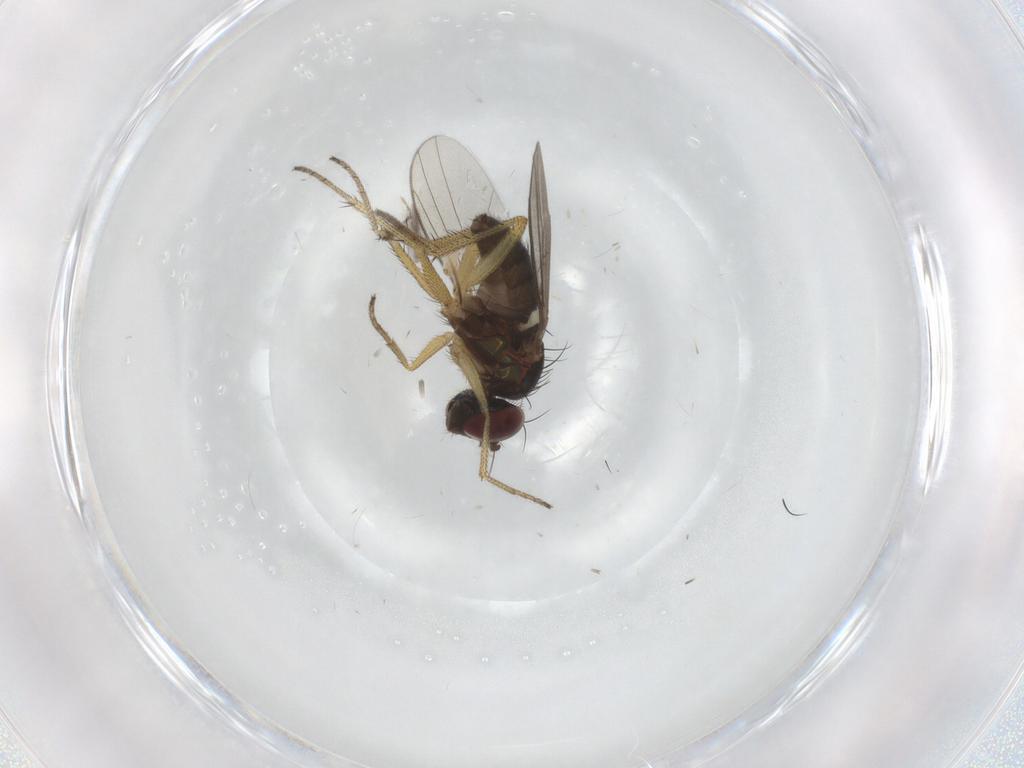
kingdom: Animalia
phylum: Arthropoda
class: Insecta
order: Diptera
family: Ceratopogonidae
